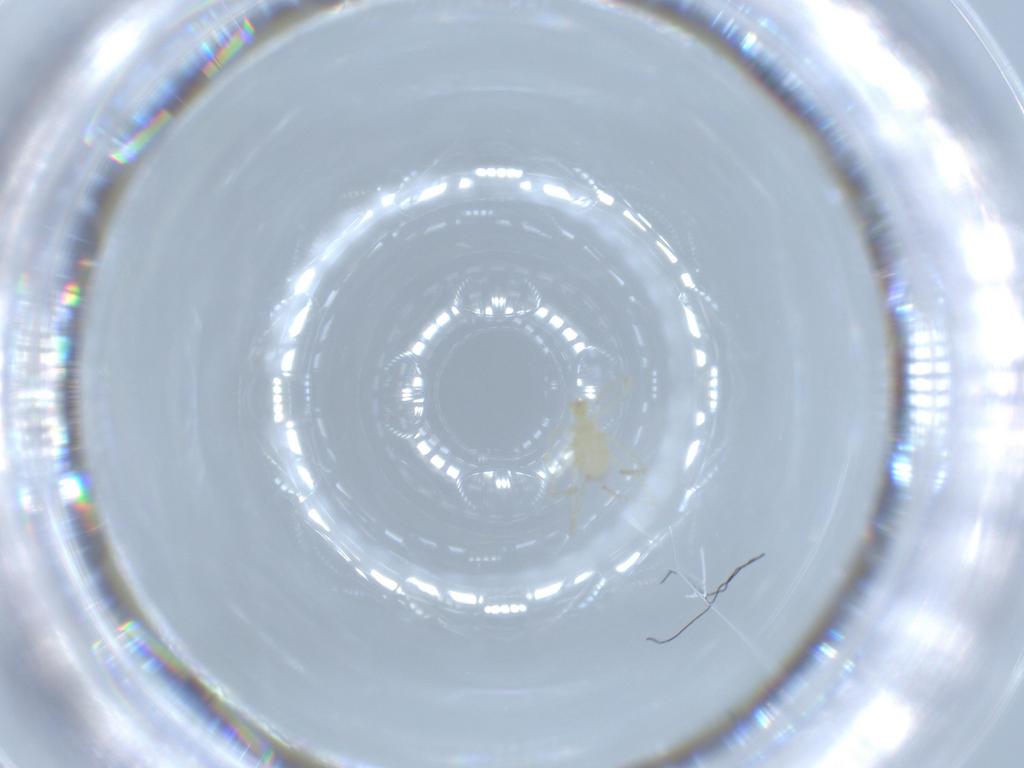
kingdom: Animalia
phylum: Arthropoda
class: Arachnida
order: Trombidiformes
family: Erythraeidae
